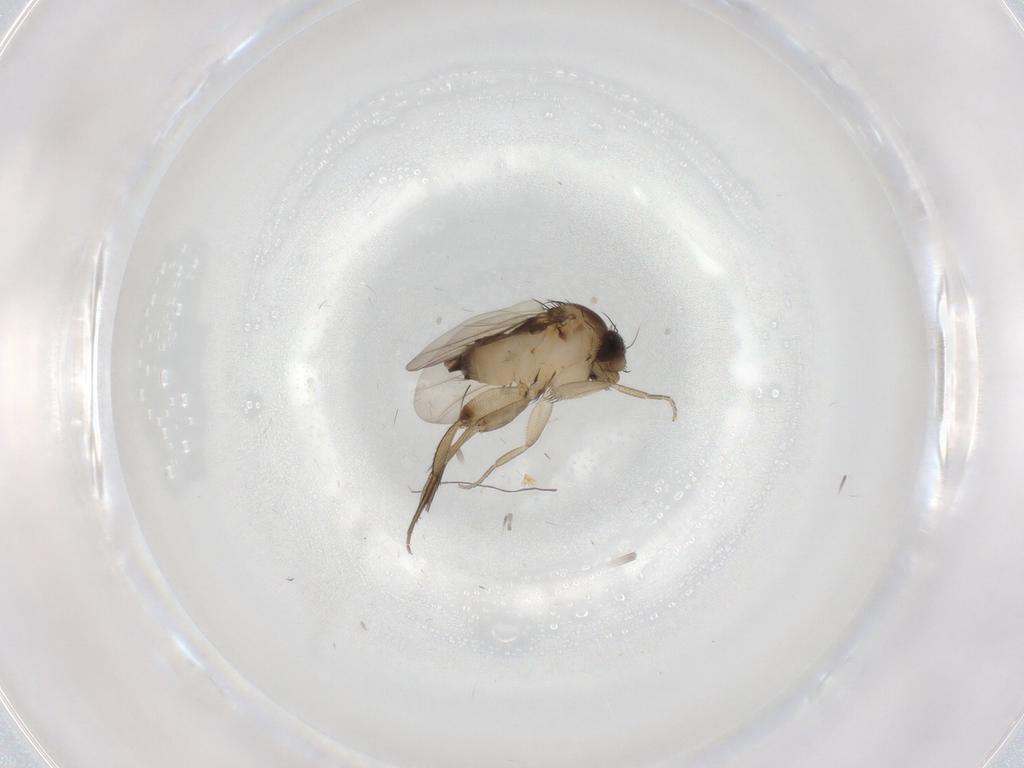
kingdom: Animalia
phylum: Arthropoda
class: Insecta
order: Diptera
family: Phoridae
